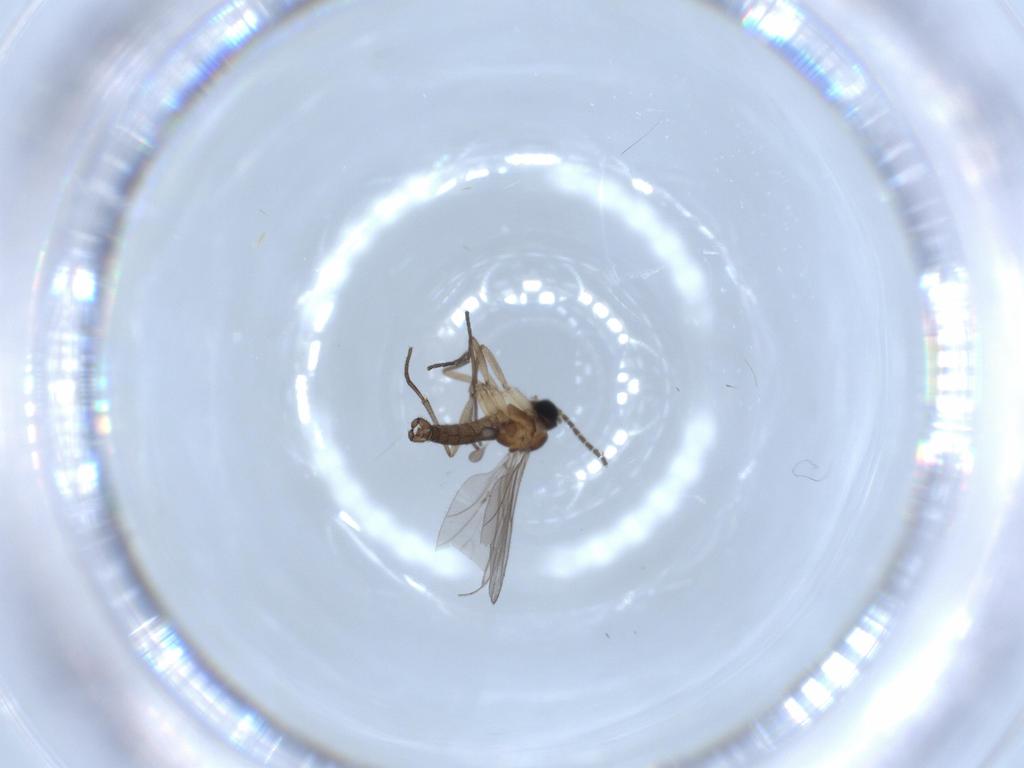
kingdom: Animalia
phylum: Arthropoda
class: Insecta
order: Diptera
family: Sciaridae
